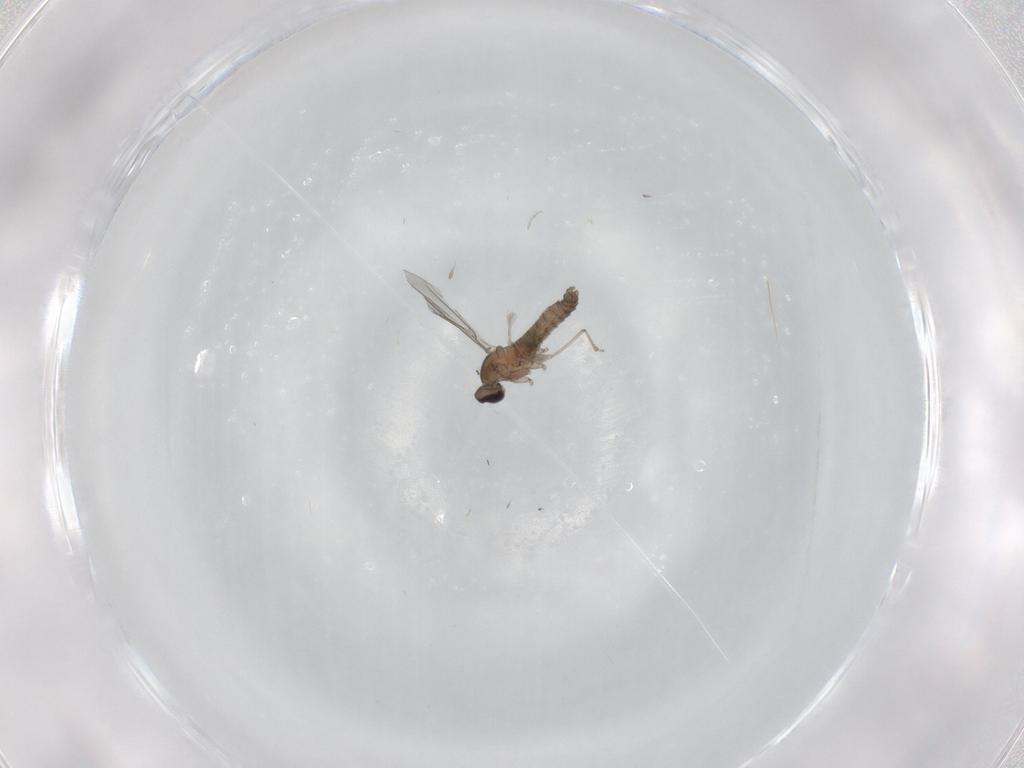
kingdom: Animalia
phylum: Arthropoda
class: Insecta
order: Diptera
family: Cecidomyiidae
